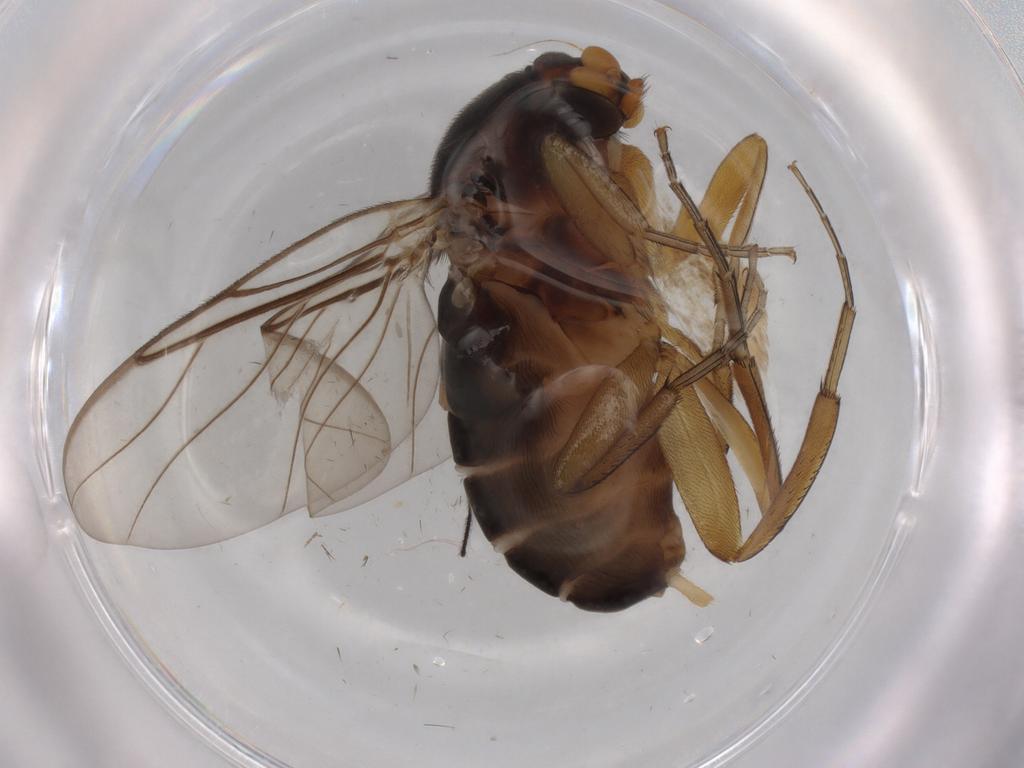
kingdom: Animalia
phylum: Arthropoda
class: Insecta
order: Diptera
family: Phoridae
